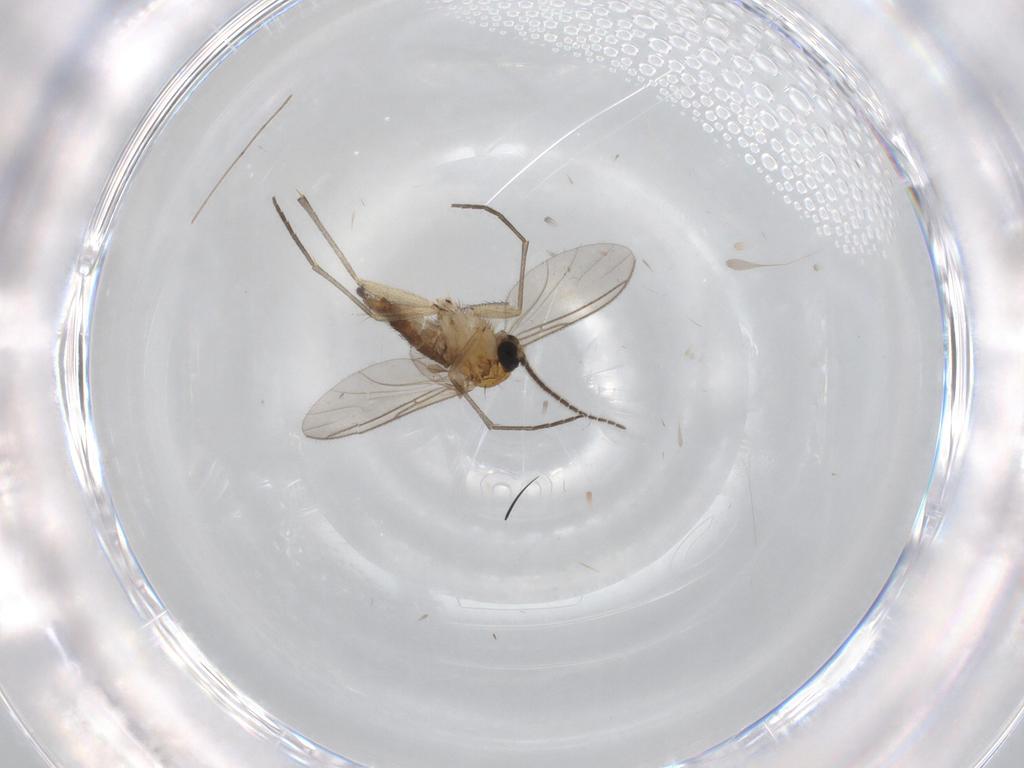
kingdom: Animalia
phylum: Arthropoda
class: Insecta
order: Diptera
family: Sciaridae
